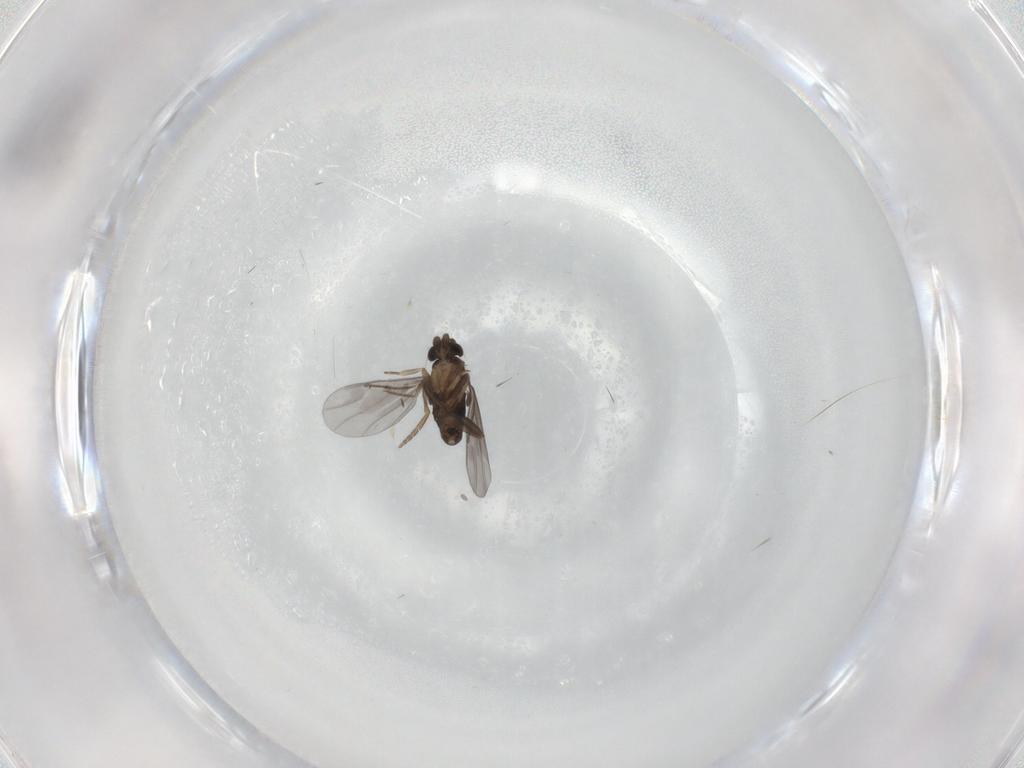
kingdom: Animalia
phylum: Arthropoda
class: Insecta
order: Diptera
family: Phoridae
